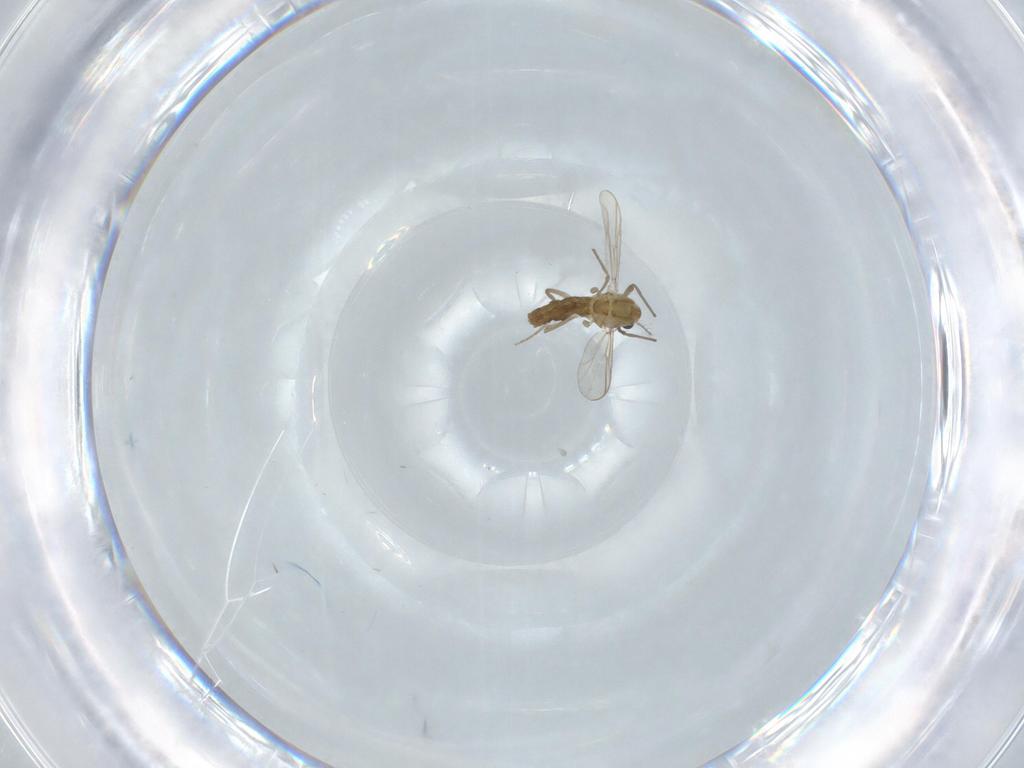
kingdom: Animalia
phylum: Arthropoda
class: Insecta
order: Diptera
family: Chironomidae
